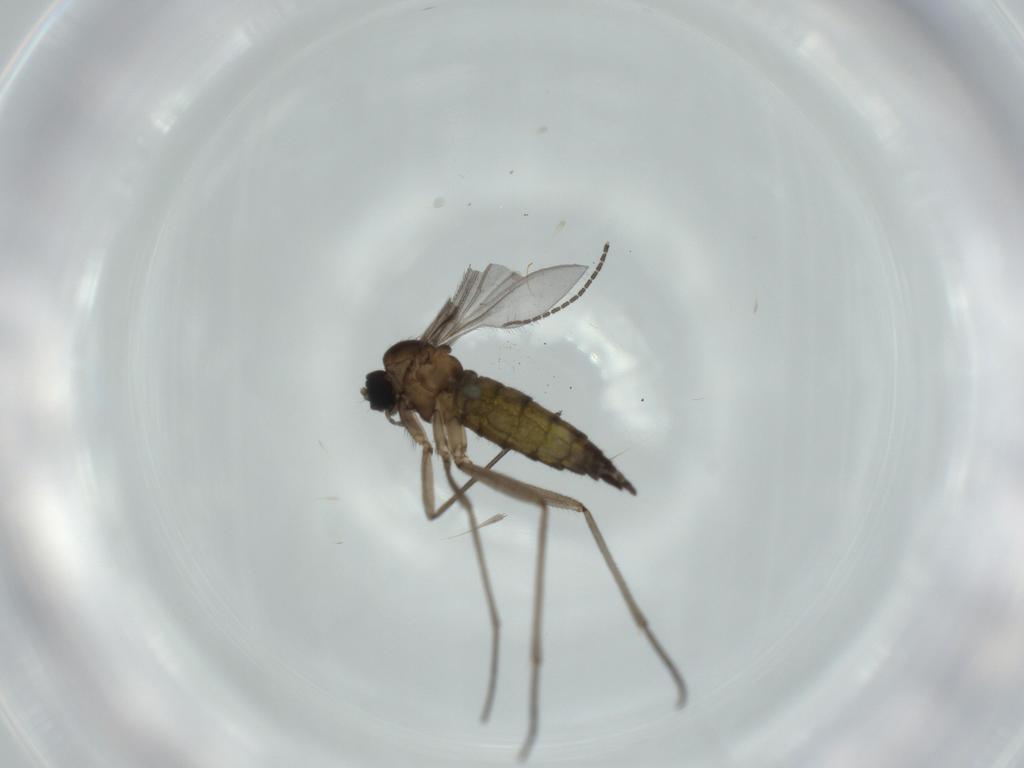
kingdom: Animalia
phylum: Arthropoda
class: Insecta
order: Diptera
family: Sciaridae
